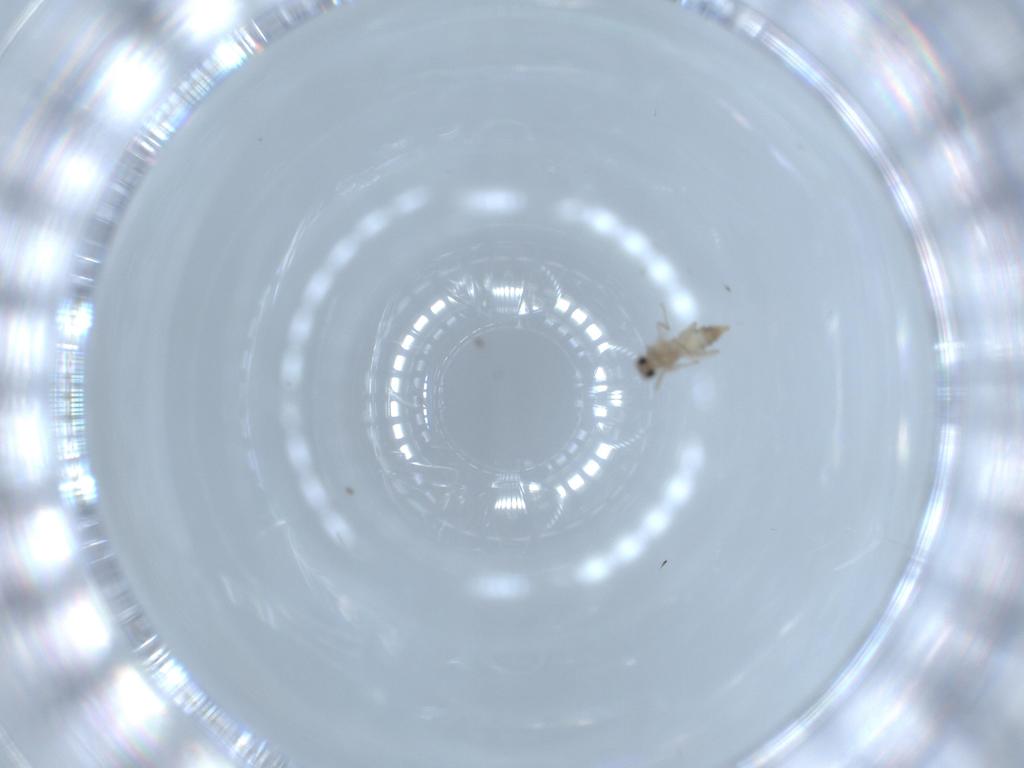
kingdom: Animalia
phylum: Arthropoda
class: Insecta
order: Diptera
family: Cecidomyiidae
